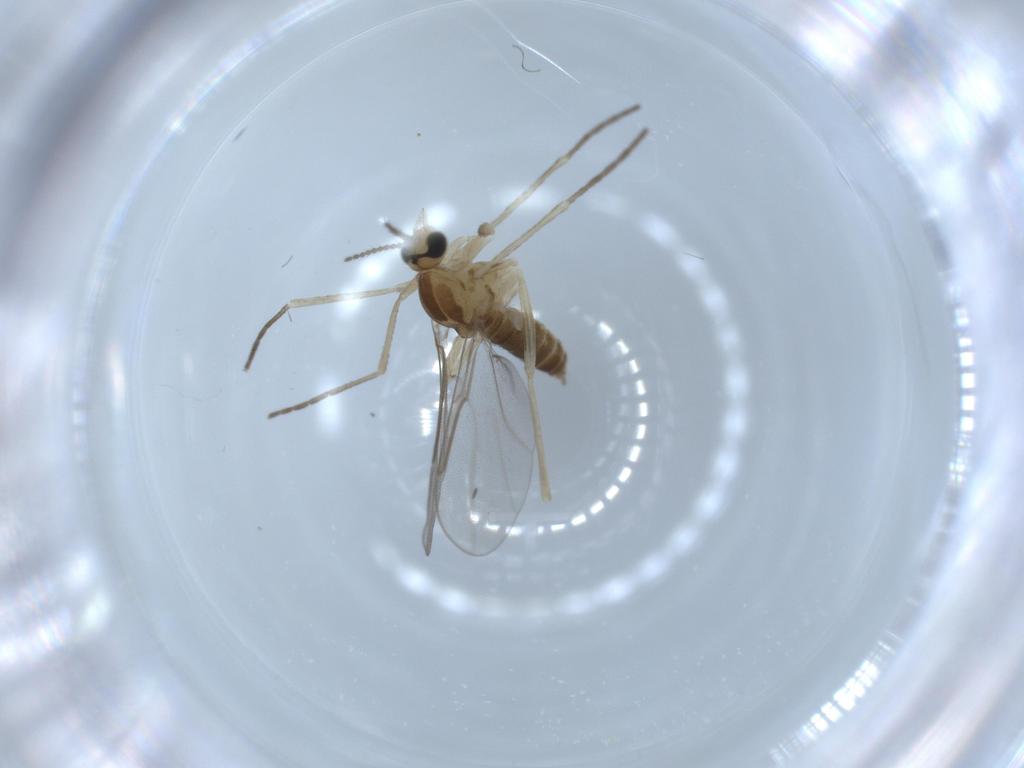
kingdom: Animalia
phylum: Arthropoda
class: Insecta
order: Diptera
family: Cecidomyiidae
